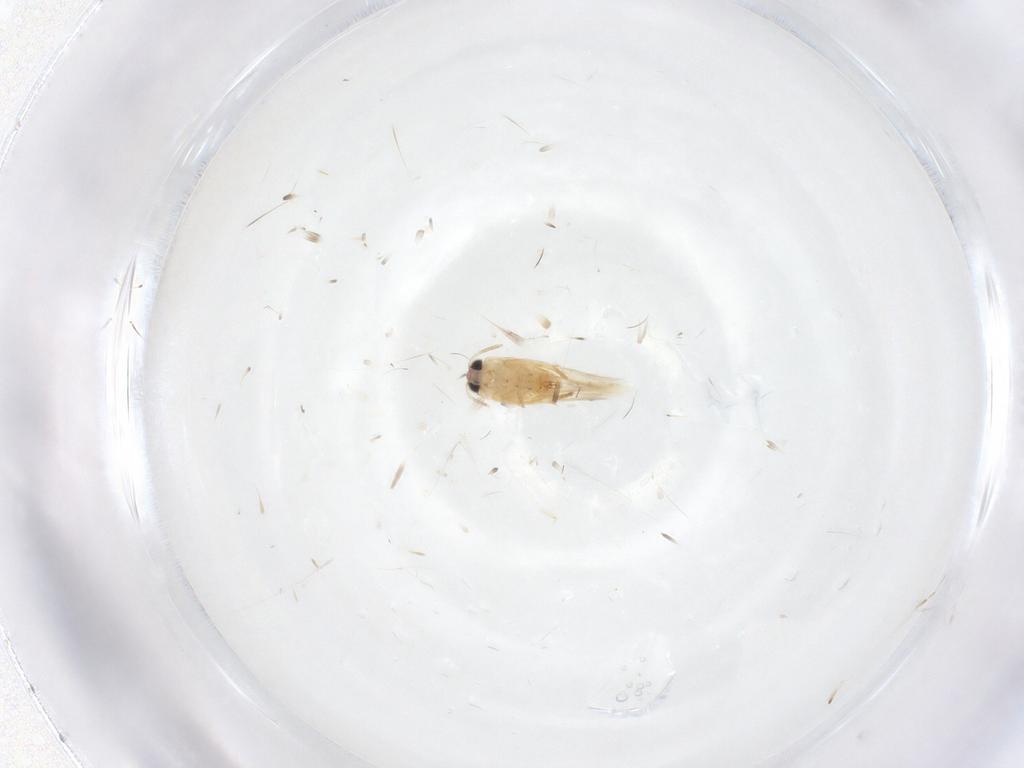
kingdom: Animalia
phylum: Arthropoda
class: Insecta
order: Lepidoptera
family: Crambidae
